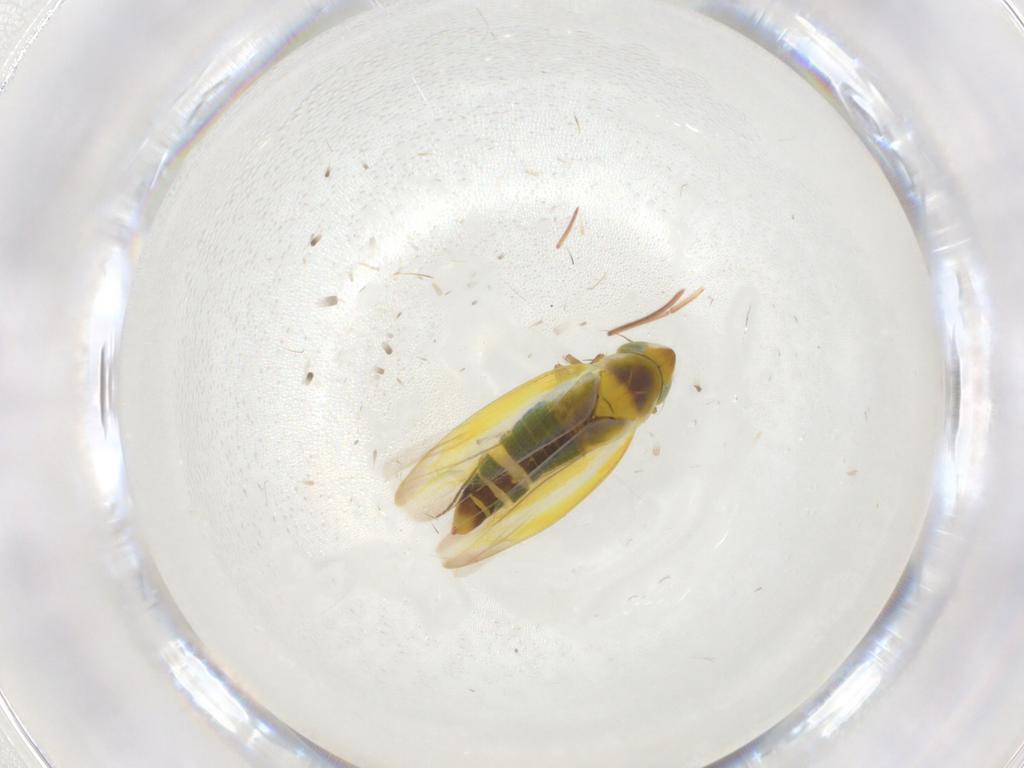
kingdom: Animalia
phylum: Arthropoda
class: Insecta
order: Hemiptera
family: Cicadellidae
